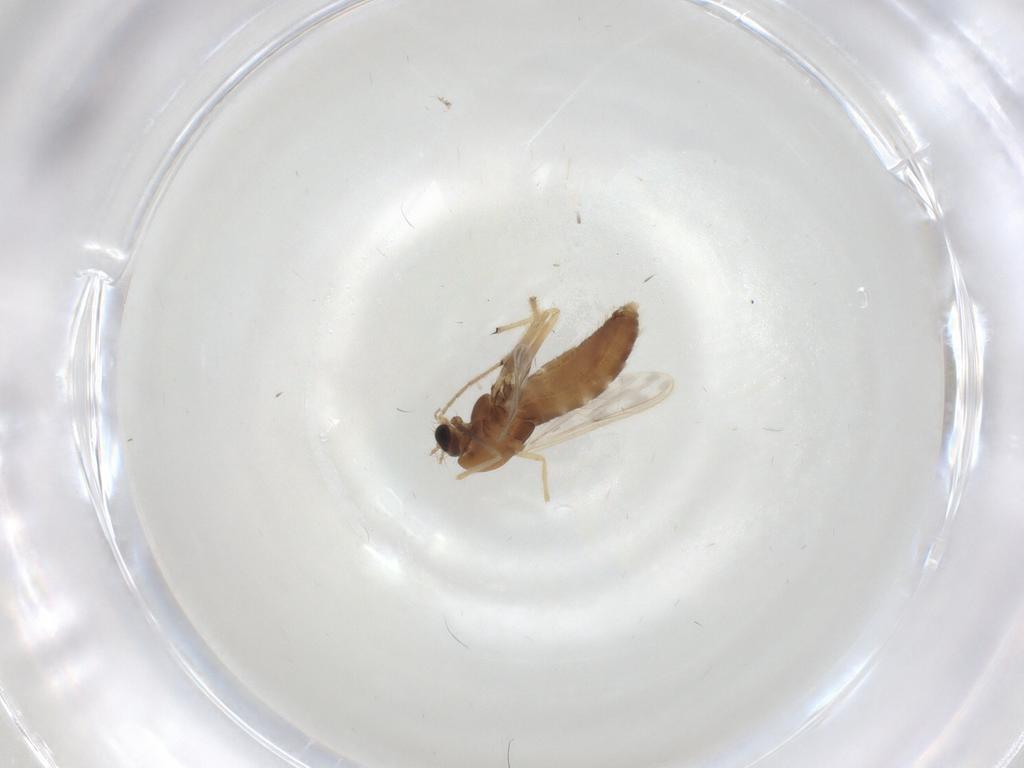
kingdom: Animalia
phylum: Arthropoda
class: Insecta
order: Diptera
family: Chironomidae
